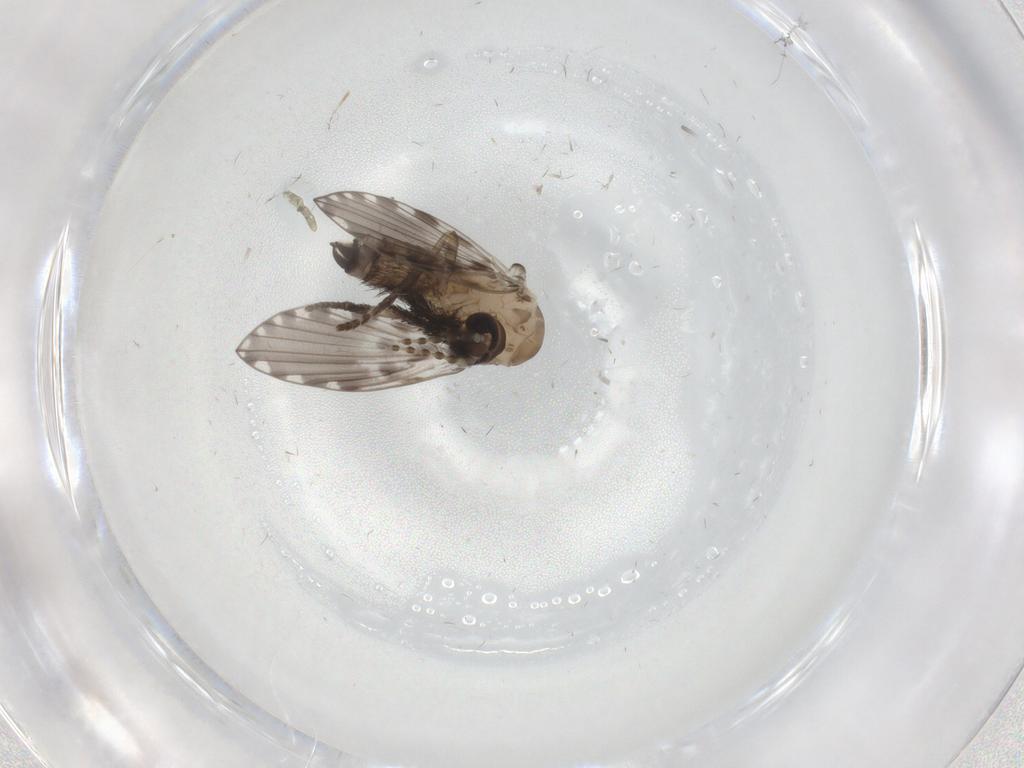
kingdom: Animalia
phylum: Arthropoda
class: Insecta
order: Diptera
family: Psychodidae
